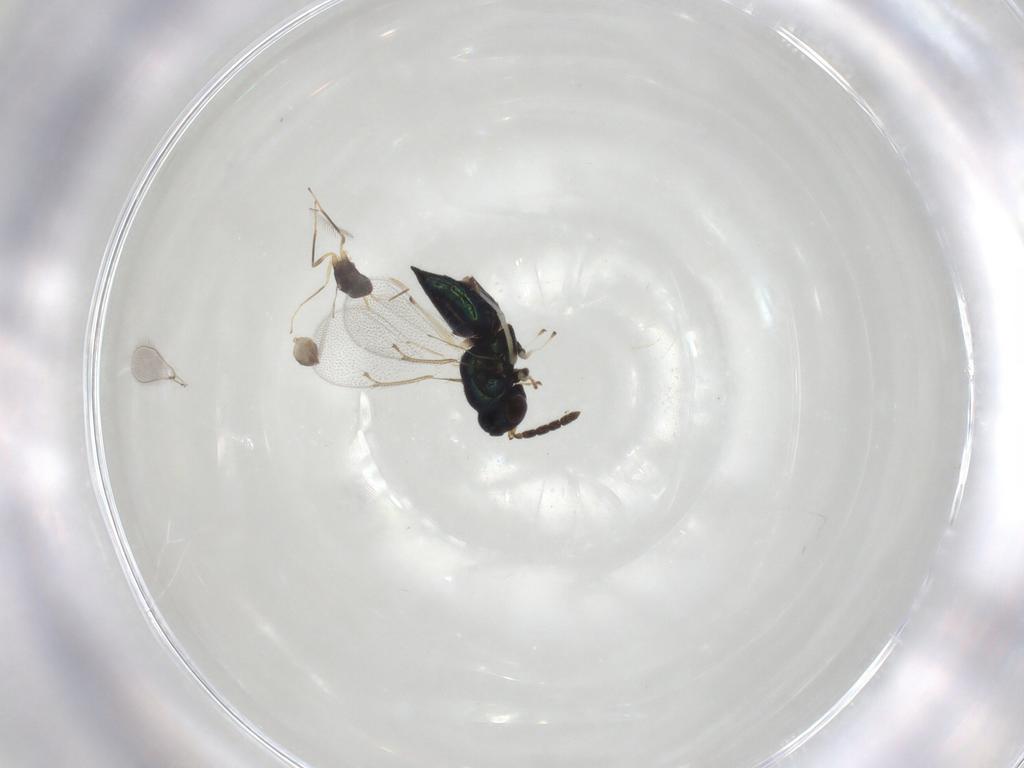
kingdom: Animalia
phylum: Arthropoda
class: Insecta
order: Hymenoptera
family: Eulophidae
